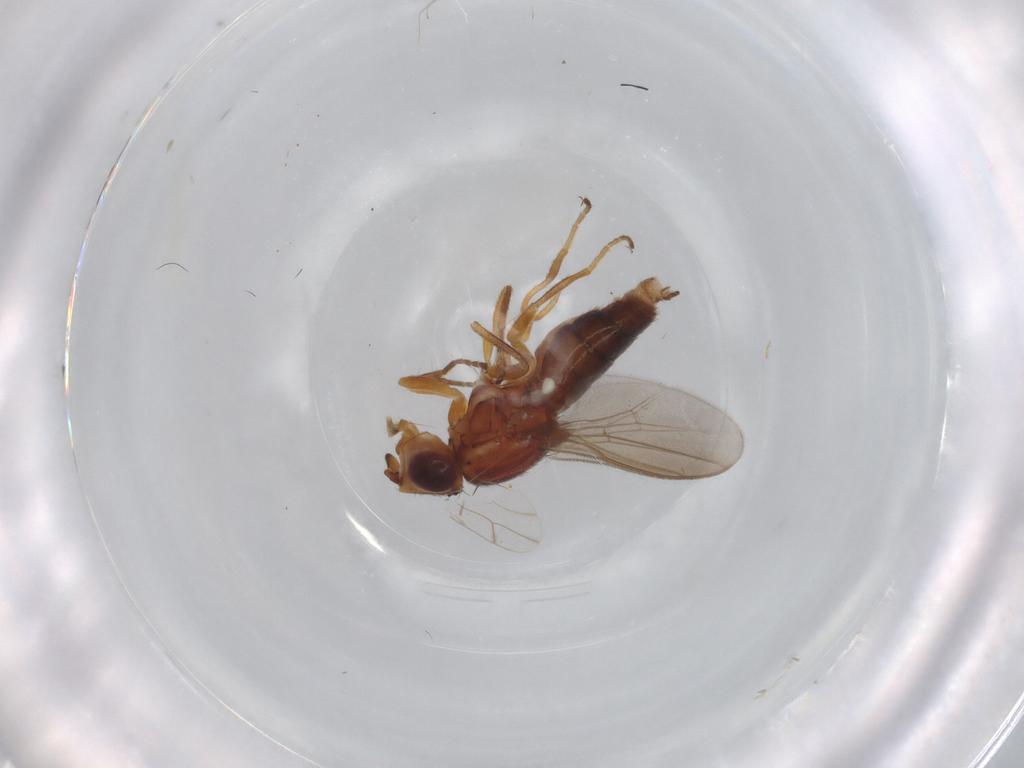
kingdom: Animalia
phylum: Arthropoda
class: Insecta
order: Diptera
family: Chloropidae
